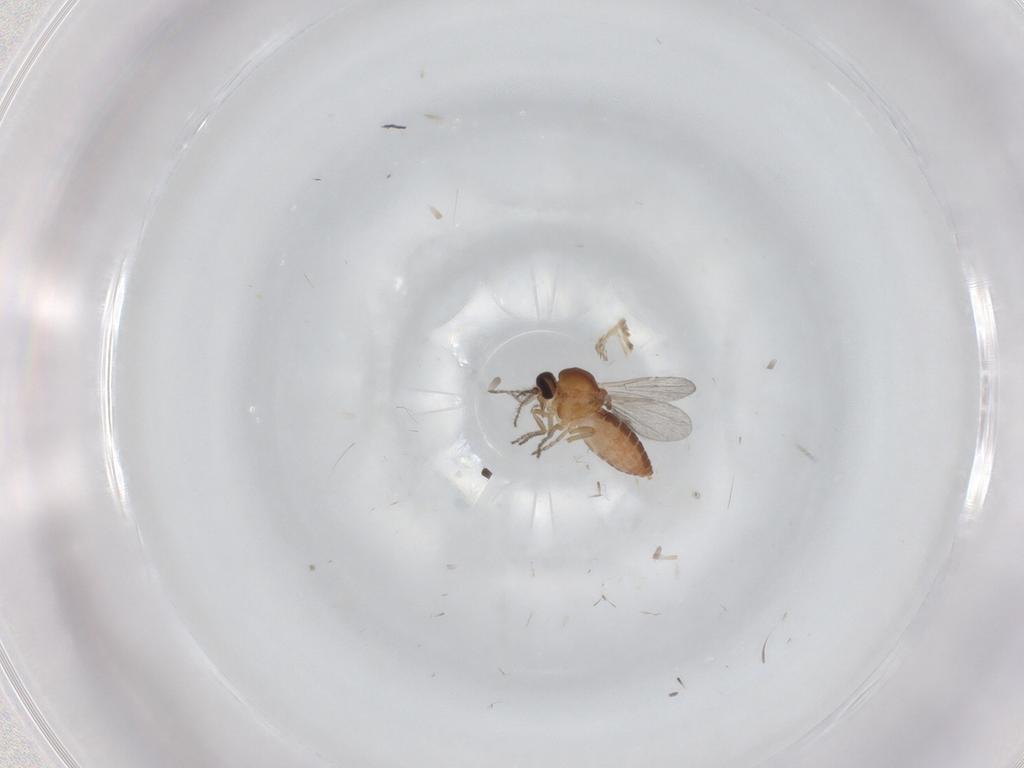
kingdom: Animalia
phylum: Arthropoda
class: Insecta
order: Diptera
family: Ceratopogonidae
